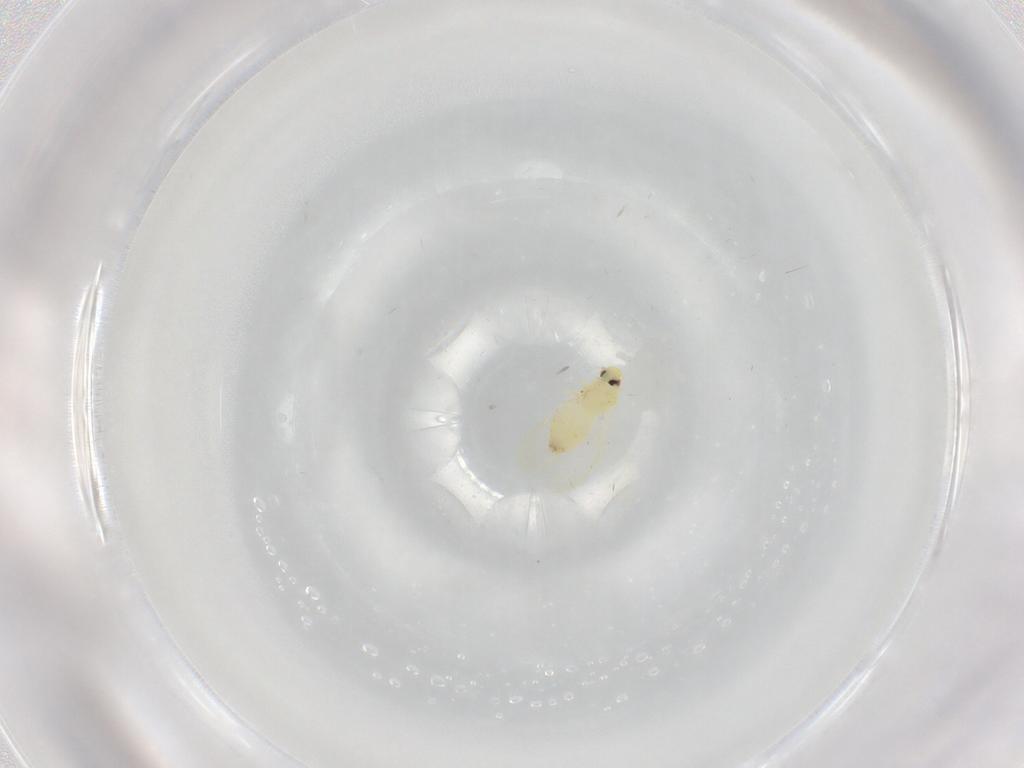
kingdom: Animalia
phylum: Arthropoda
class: Insecta
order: Hemiptera
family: Aleyrodidae
